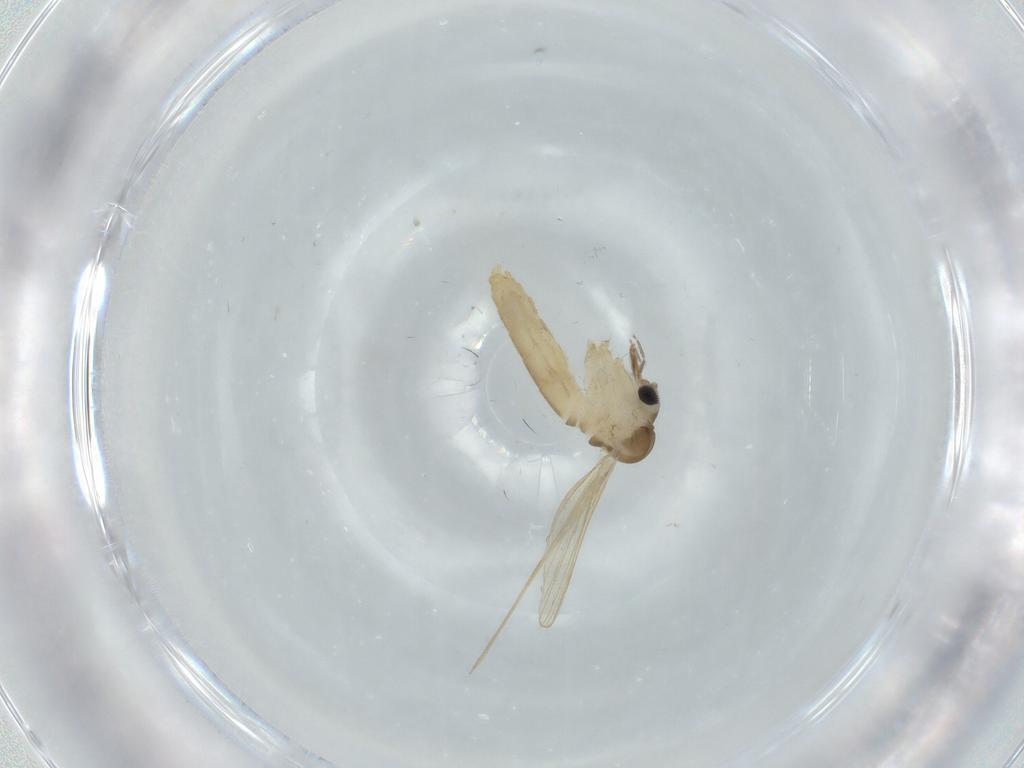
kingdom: Animalia
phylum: Arthropoda
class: Insecta
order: Diptera
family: Psychodidae
